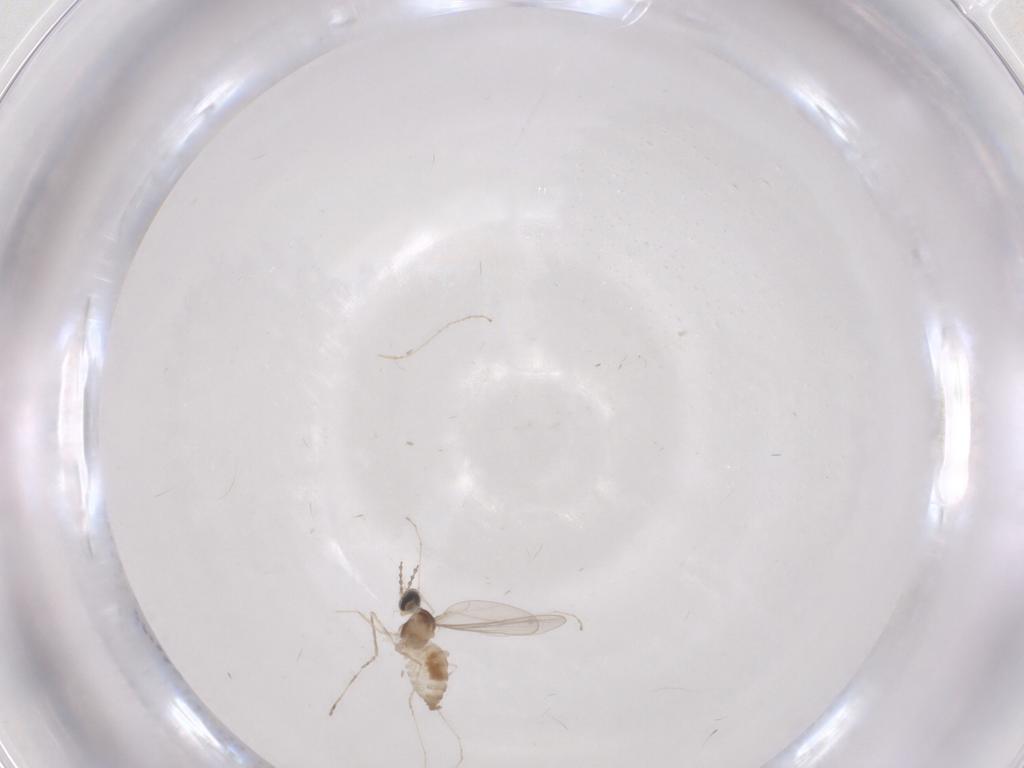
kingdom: Animalia
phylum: Arthropoda
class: Insecta
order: Diptera
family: Cecidomyiidae
